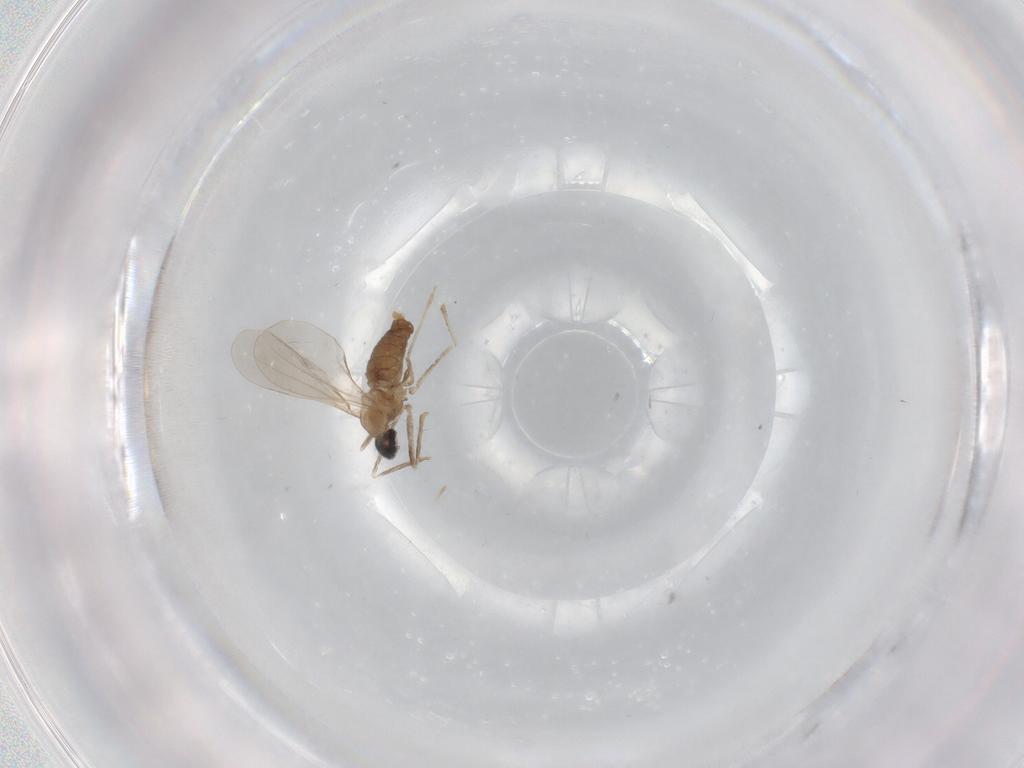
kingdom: Animalia
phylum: Arthropoda
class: Insecta
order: Diptera
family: Cecidomyiidae
